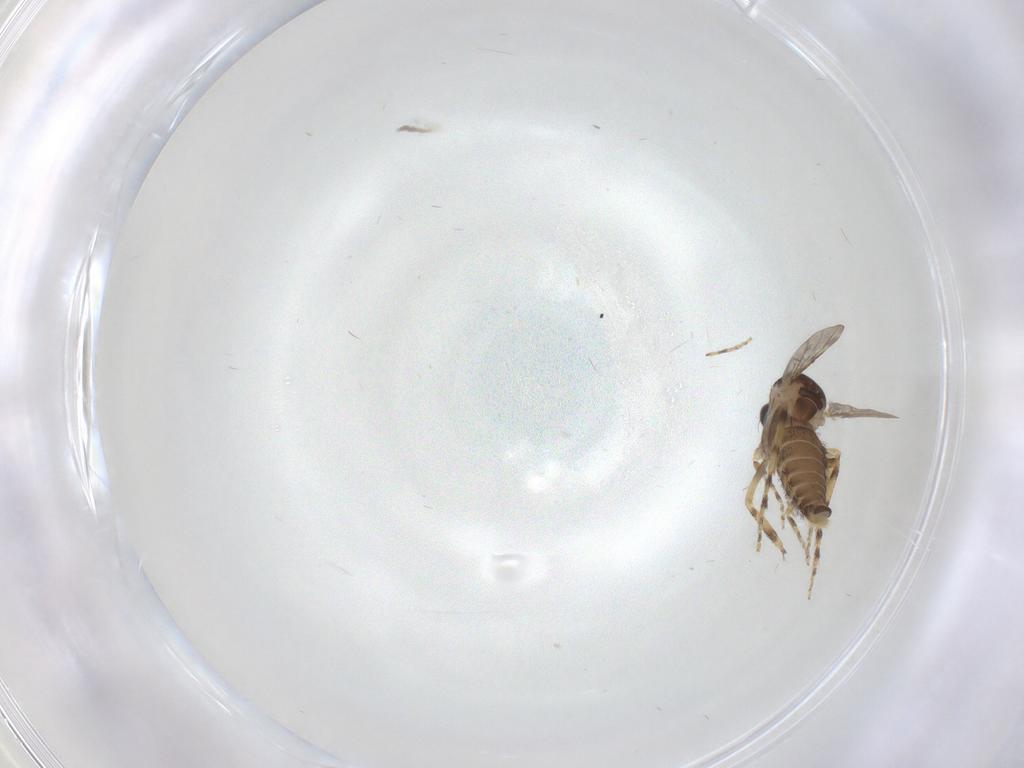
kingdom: Animalia
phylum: Arthropoda
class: Insecta
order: Diptera
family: Ceratopogonidae
